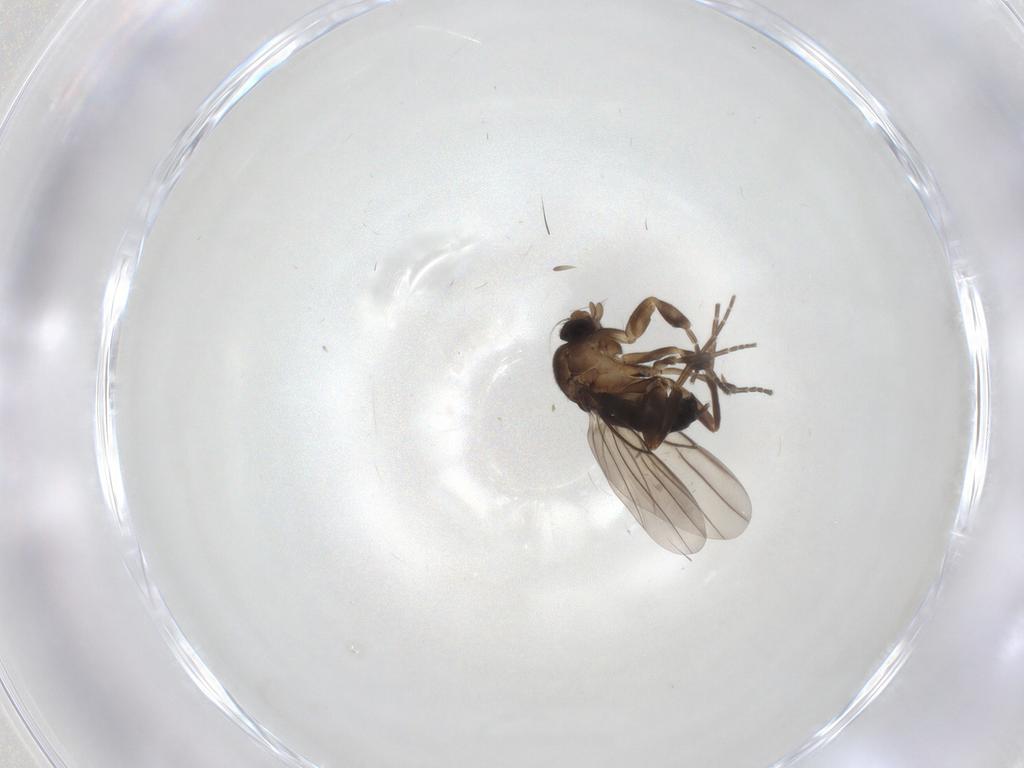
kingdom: Animalia
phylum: Arthropoda
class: Insecta
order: Diptera
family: Phoridae
